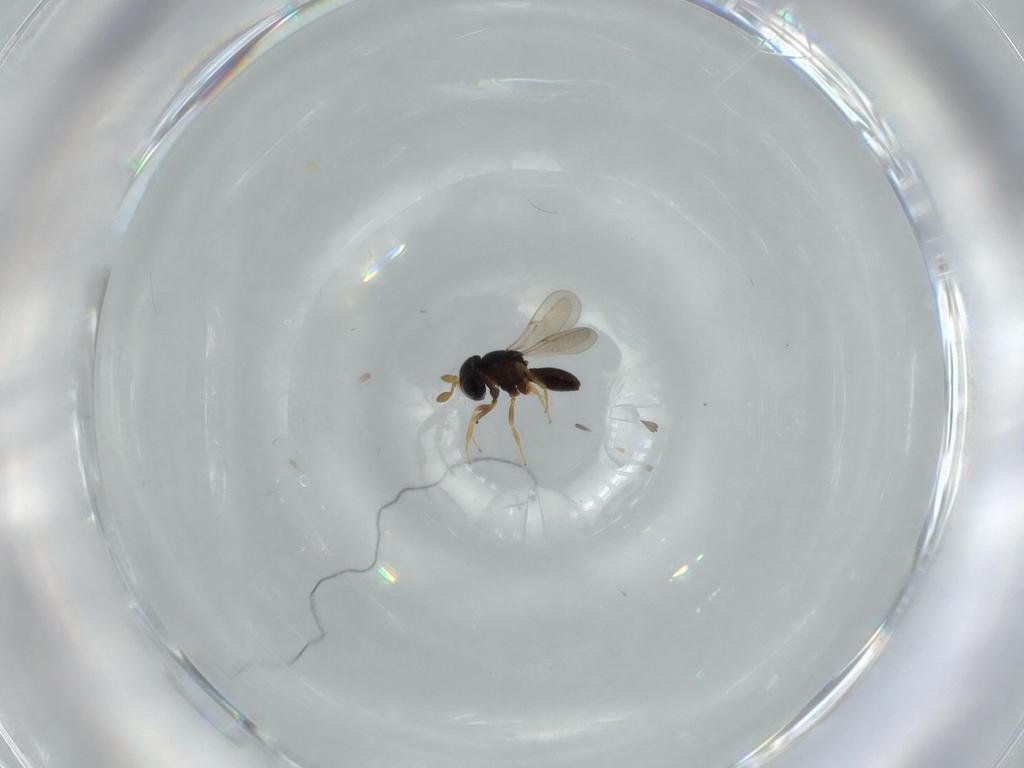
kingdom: Animalia
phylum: Arthropoda
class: Insecta
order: Hymenoptera
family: Scelionidae
